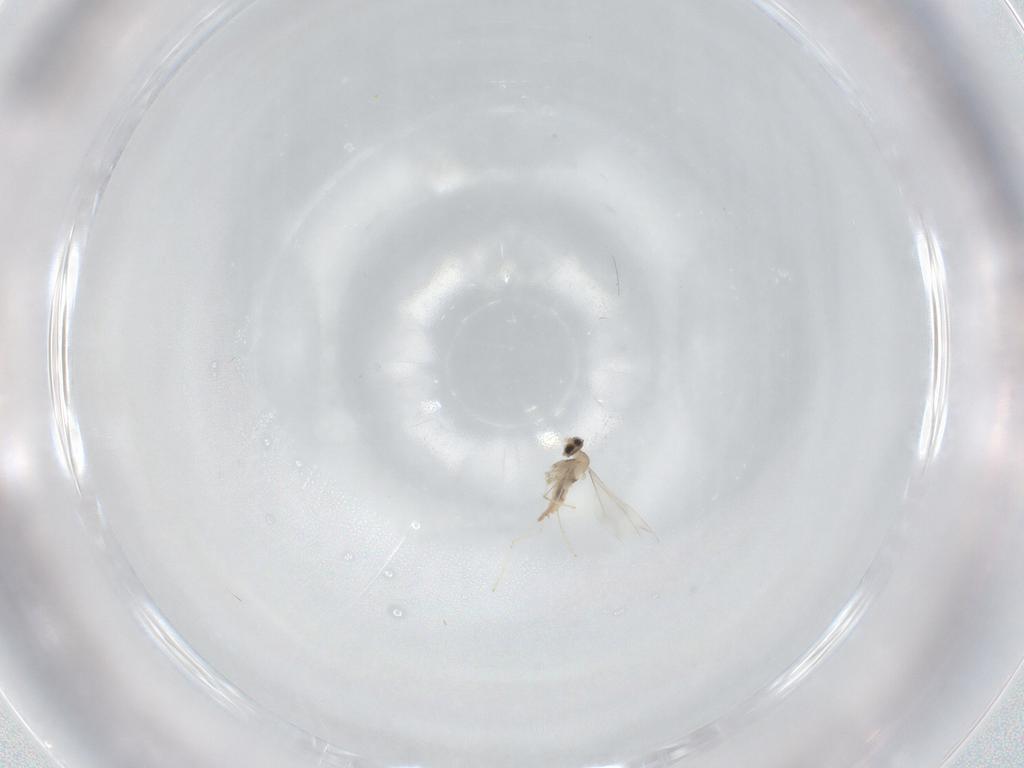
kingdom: Animalia
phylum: Arthropoda
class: Insecta
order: Diptera
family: Cecidomyiidae
